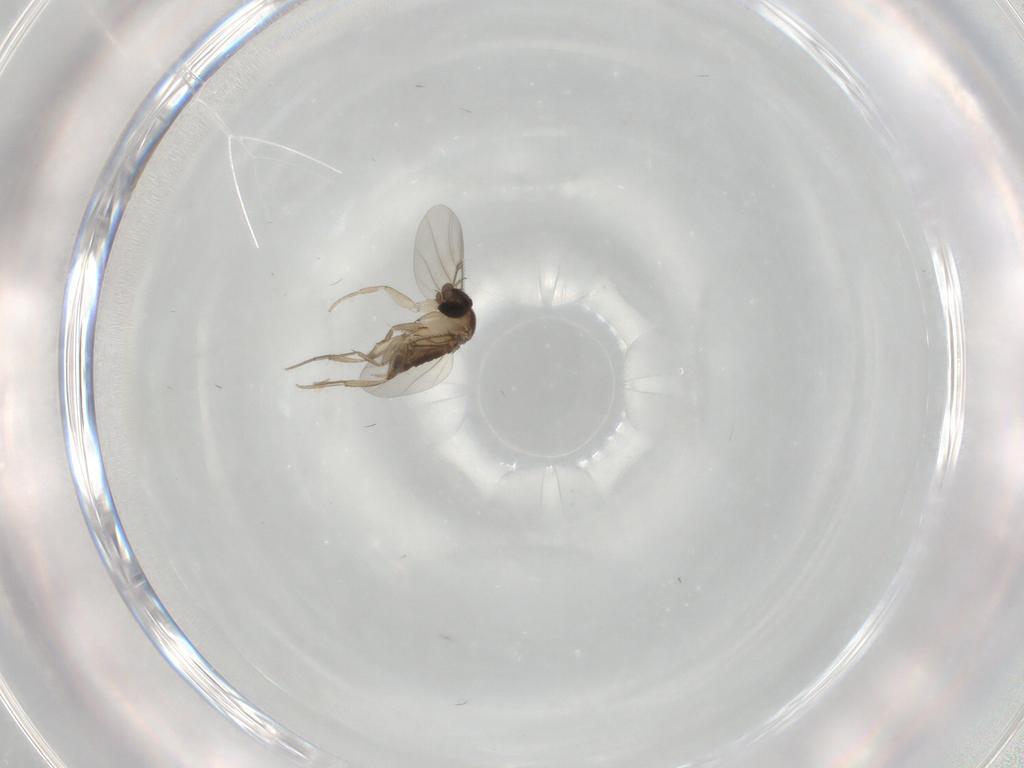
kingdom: Animalia
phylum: Arthropoda
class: Insecta
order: Diptera
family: Phoridae
